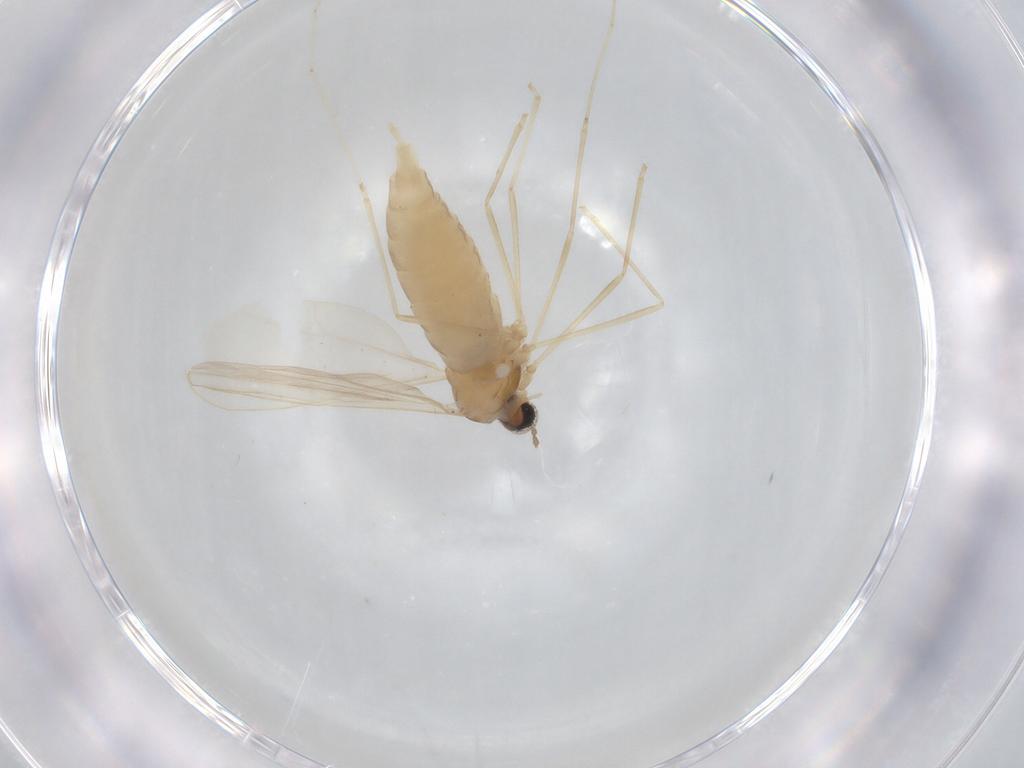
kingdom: Animalia
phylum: Arthropoda
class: Insecta
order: Diptera
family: Cecidomyiidae
